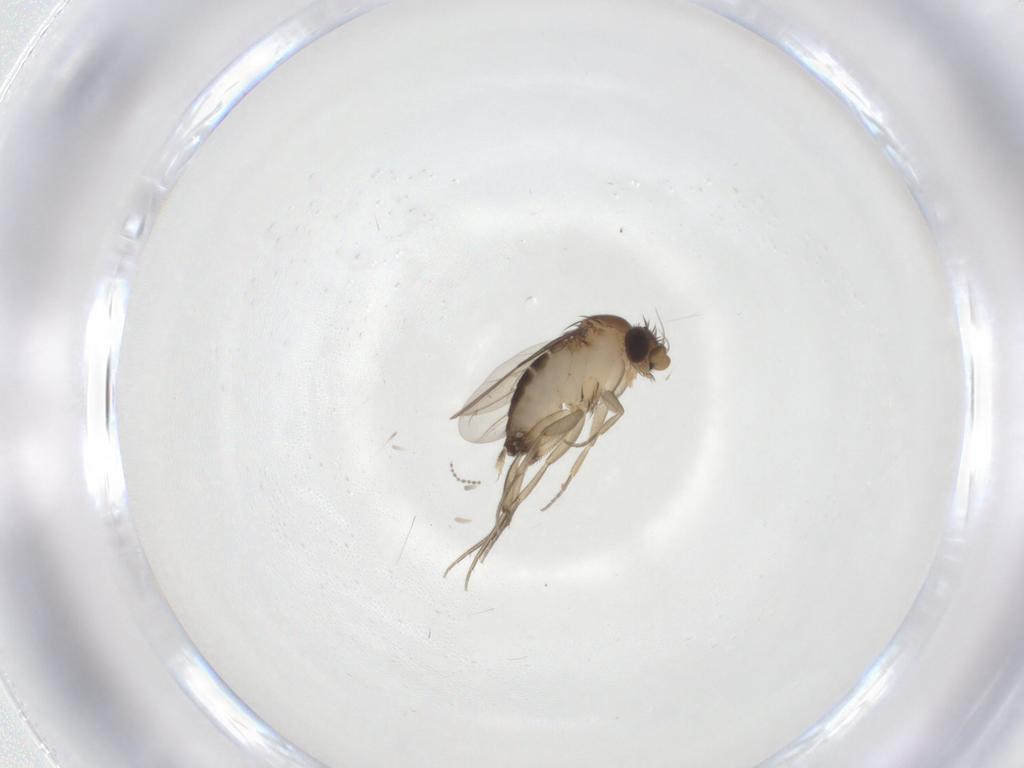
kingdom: Animalia
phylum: Arthropoda
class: Insecta
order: Diptera
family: Phoridae
